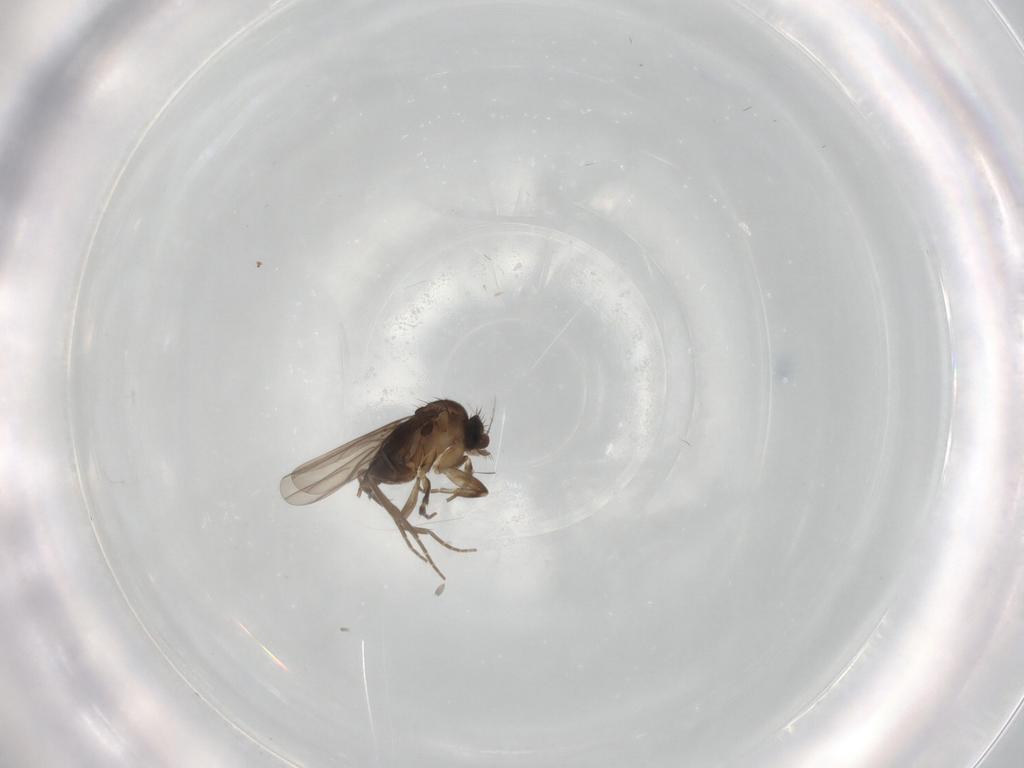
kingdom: Animalia
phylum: Arthropoda
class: Insecta
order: Diptera
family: Phoridae
